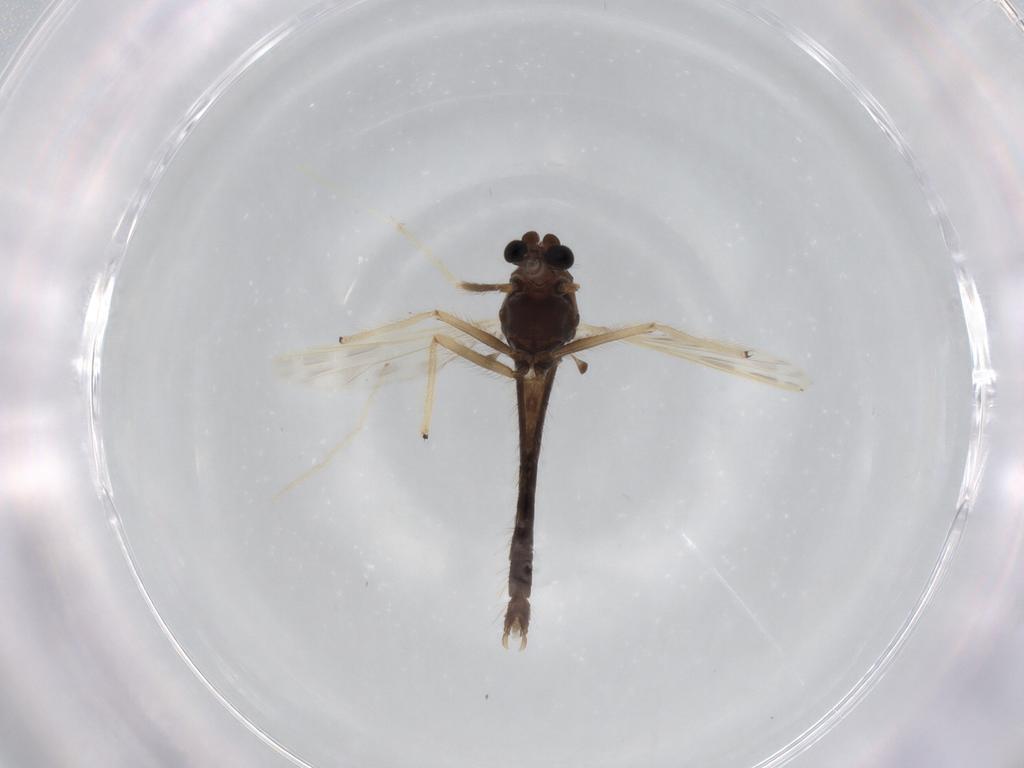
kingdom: Animalia
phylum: Arthropoda
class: Insecta
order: Diptera
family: Chironomidae
